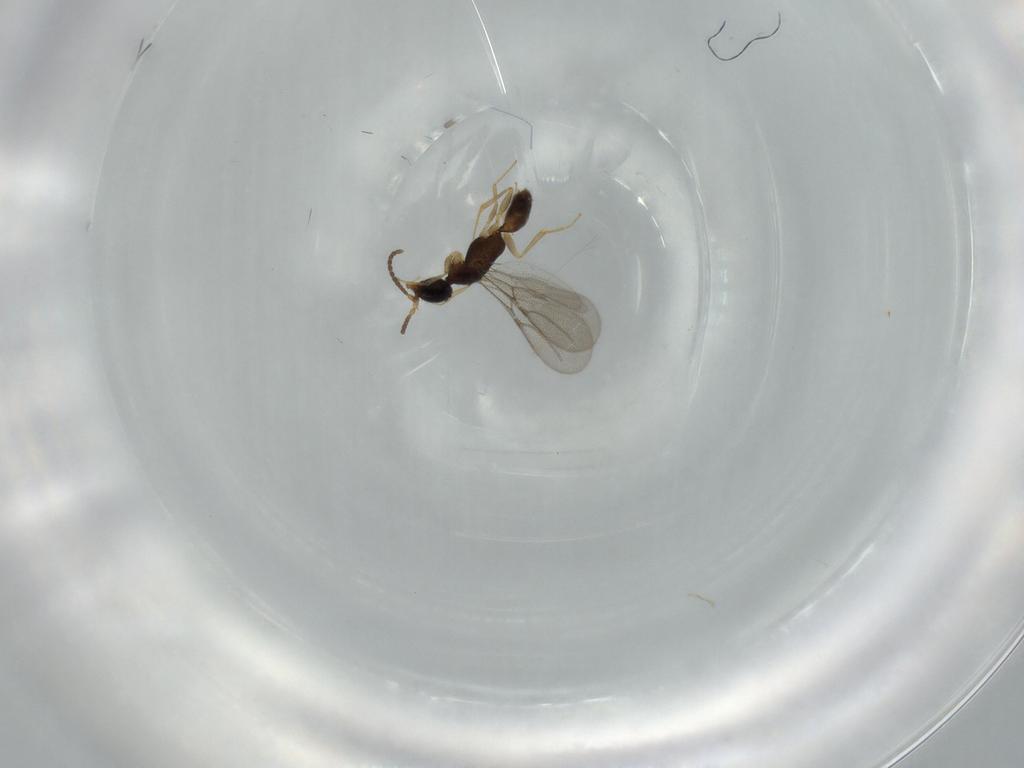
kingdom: Animalia
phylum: Arthropoda
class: Insecta
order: Hymenoptera
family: Bethylidae
